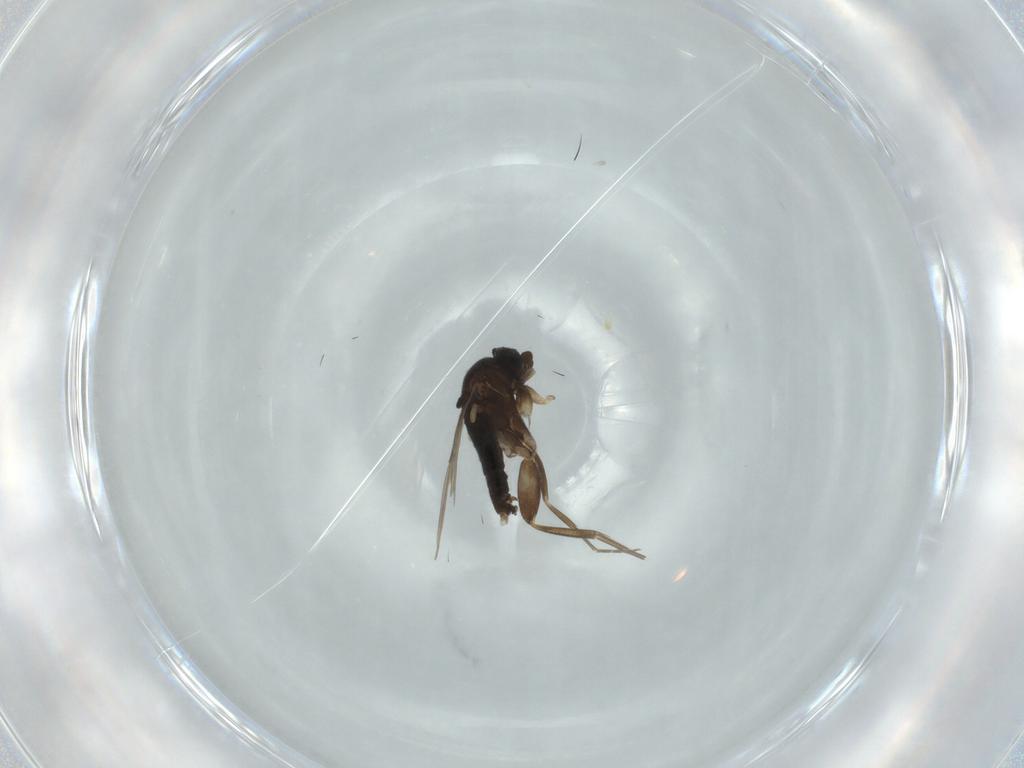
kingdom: Animalia
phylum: Arthropoda
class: Insecta
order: Diptera
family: Phoridae
